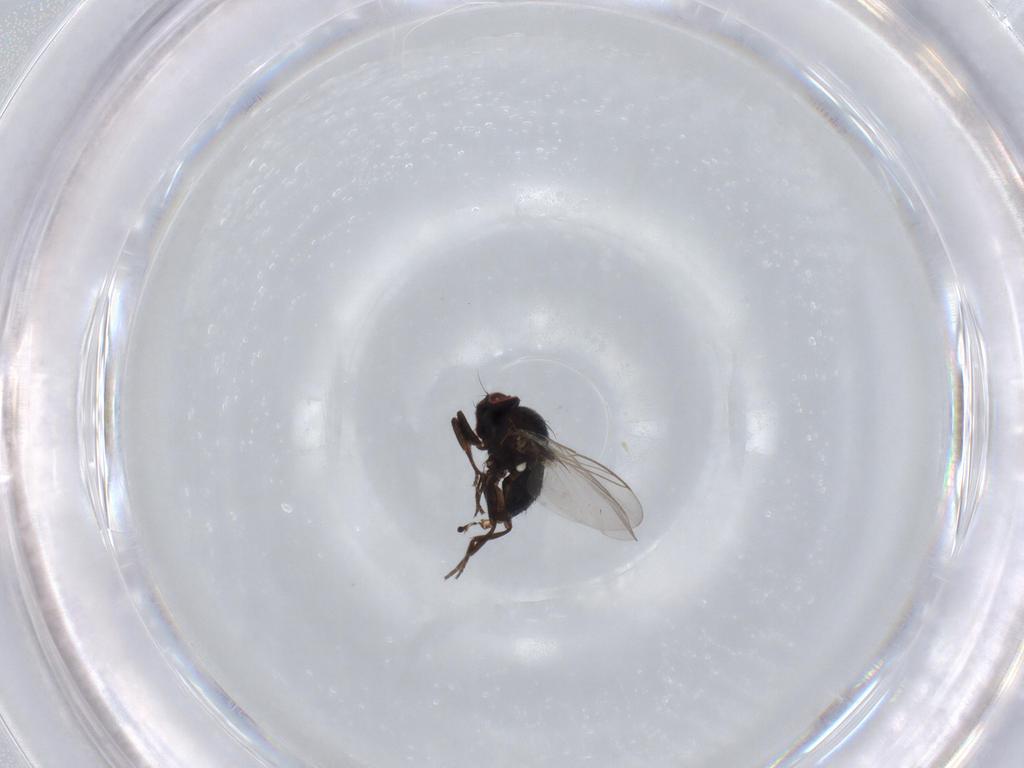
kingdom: Animalia
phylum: Arthropoda
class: Insecta
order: Diptera
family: Agromyzidae
